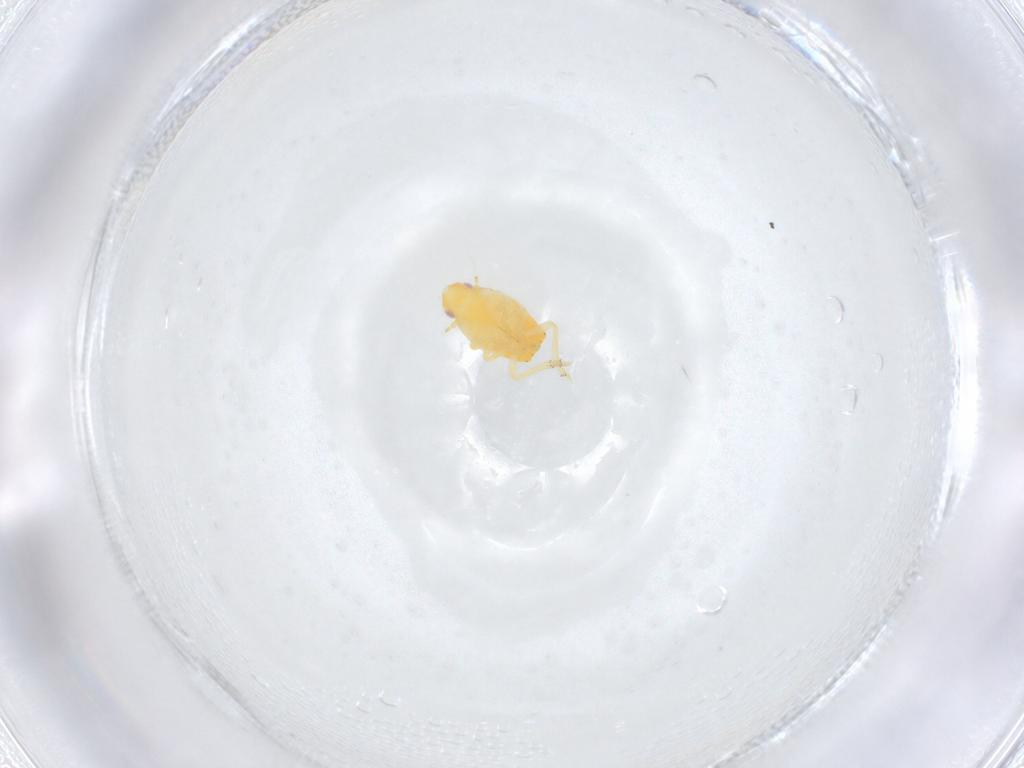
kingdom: Animalia
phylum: Arthropoda
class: Insecta
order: Hemiptera
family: Flatidae
